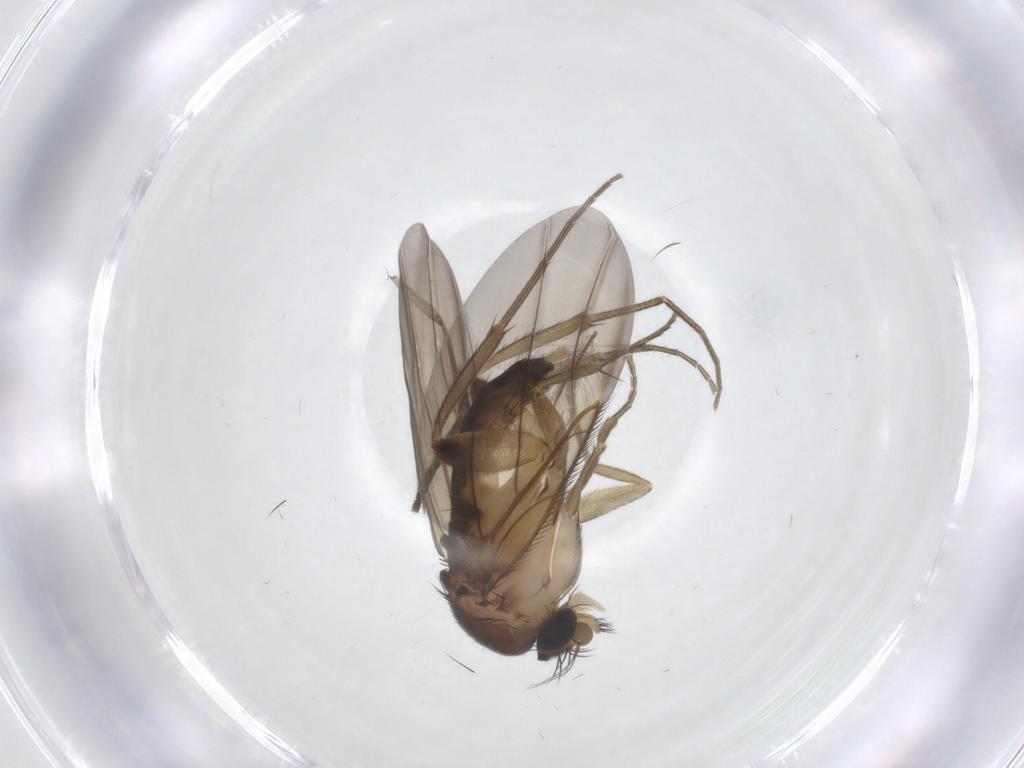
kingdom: Animalia
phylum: Arthropoda
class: Insecta
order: Diptera
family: Phoridae
